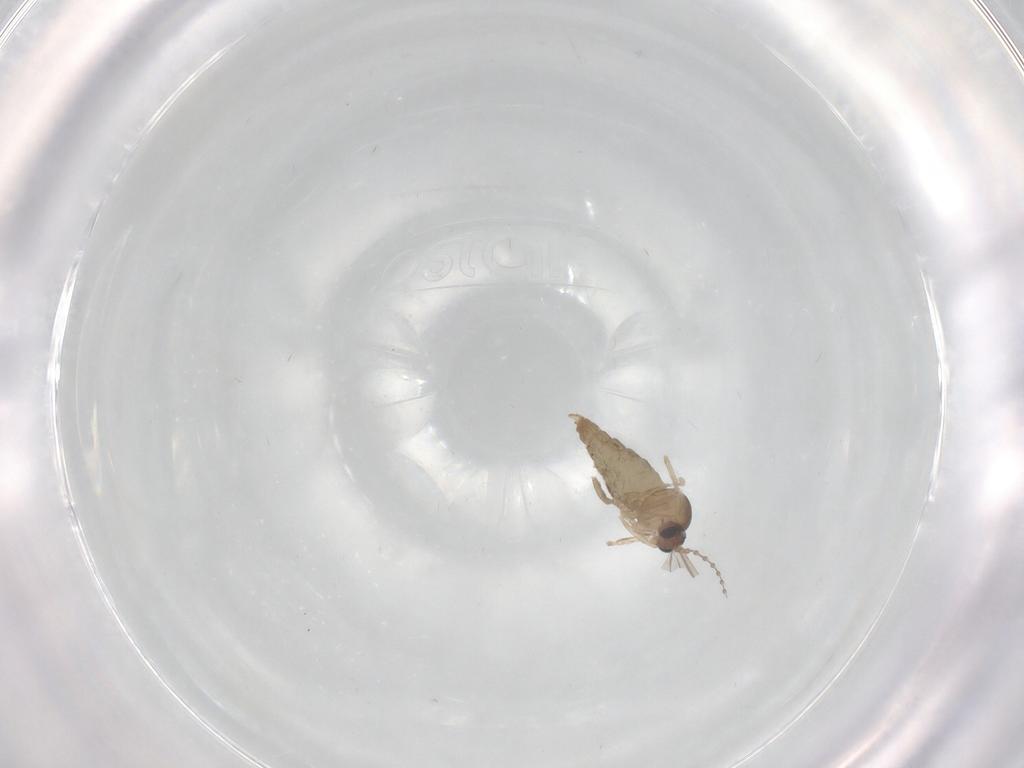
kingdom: Animalia
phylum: Arthropoda
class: Insecta
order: Diptera
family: Cecidomyiidae
